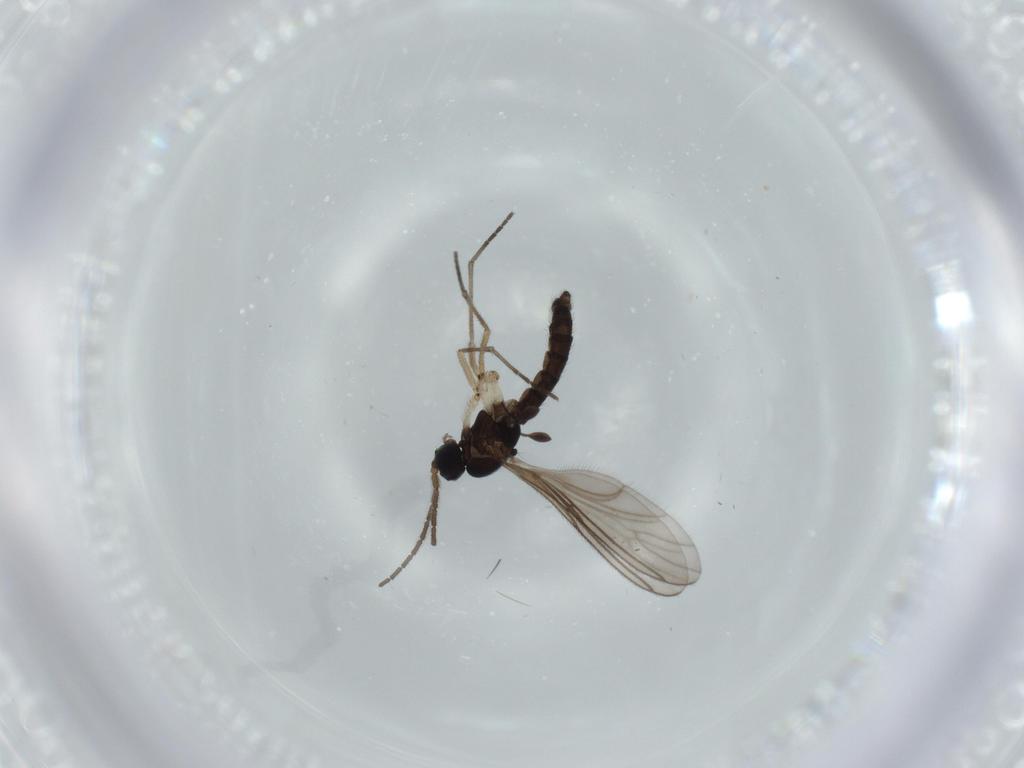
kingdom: Animalia
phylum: Arthropoda
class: Insecta
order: Diptera
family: Sciaridae
